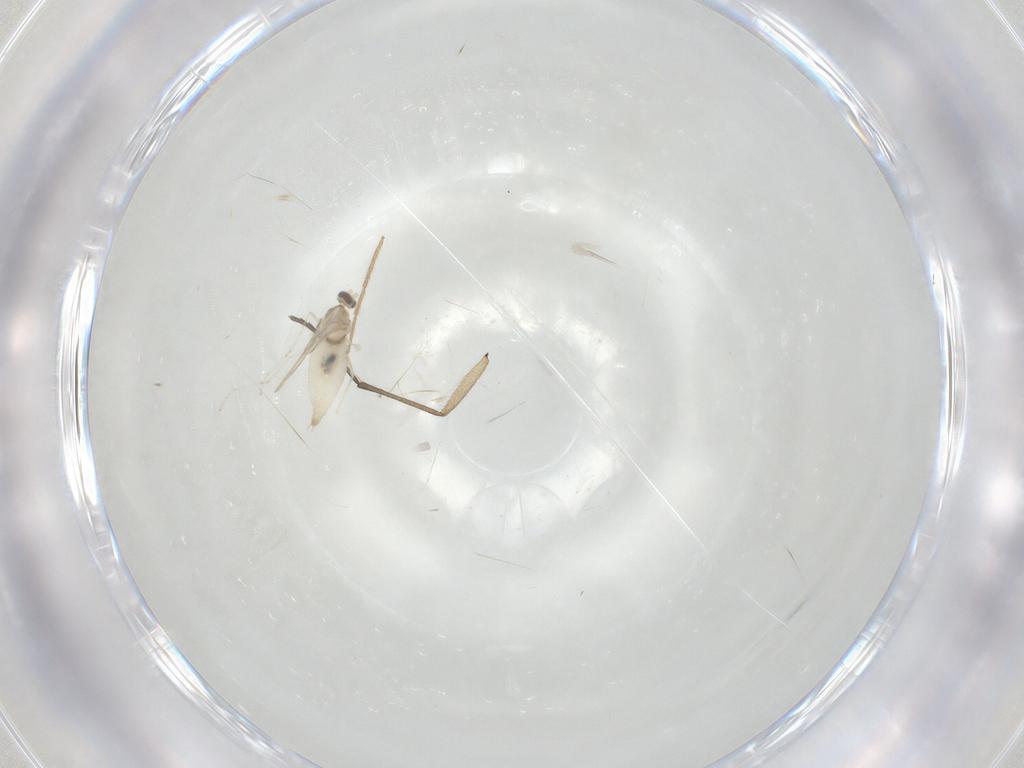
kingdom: Animalia
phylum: Arthropoda
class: Insecta
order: Diptera
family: Cecidomyiidae
